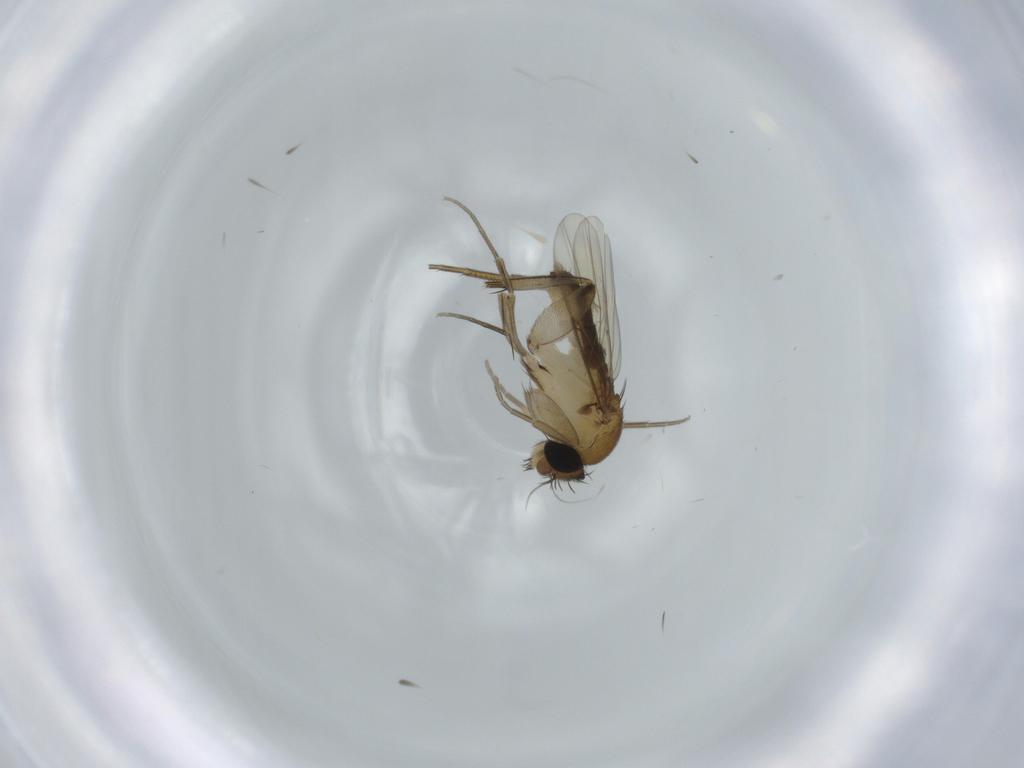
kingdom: Animalia
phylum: Arthropoda
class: Insecta
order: Diptera
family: Phoridae
